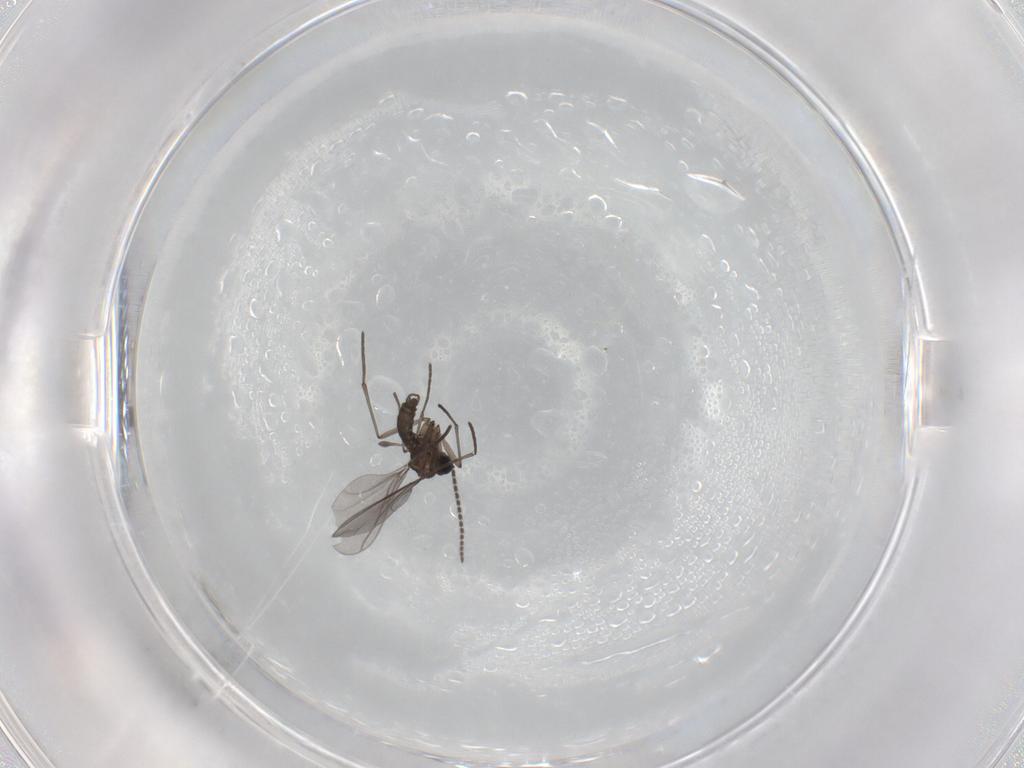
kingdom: Animalia
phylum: Arthropoda
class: Insecta
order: Diptera
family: Cecidomyiidae
